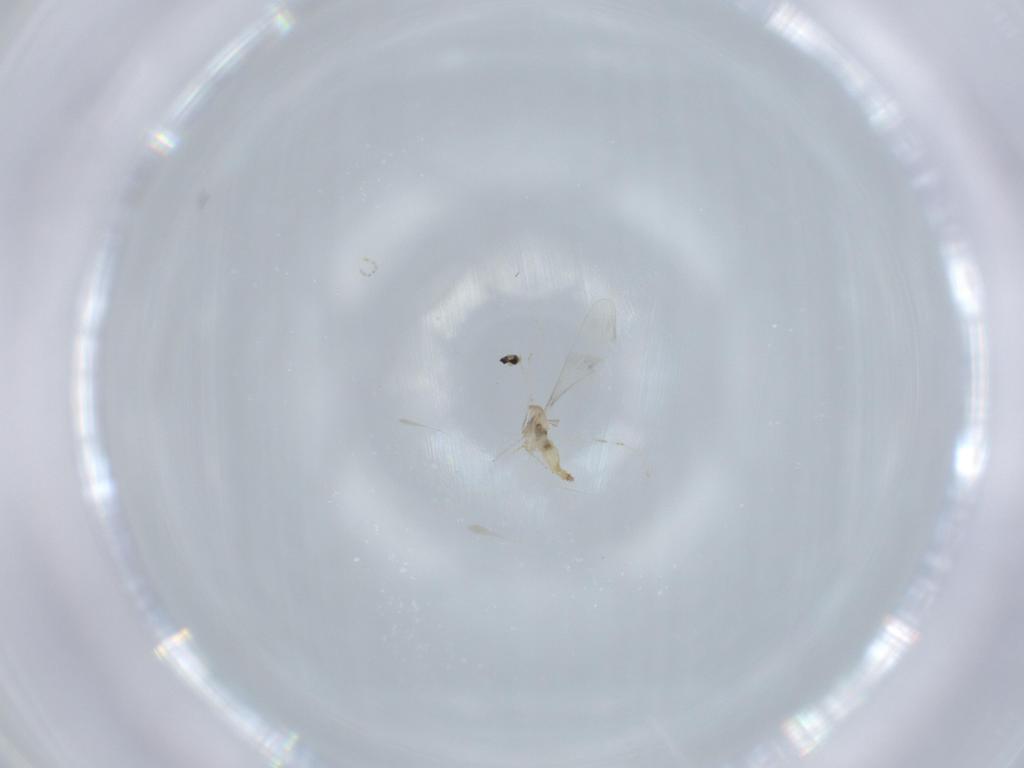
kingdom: Animalia
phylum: Arthropoda
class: Insecta
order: Diptera
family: Cecidomyiidae
